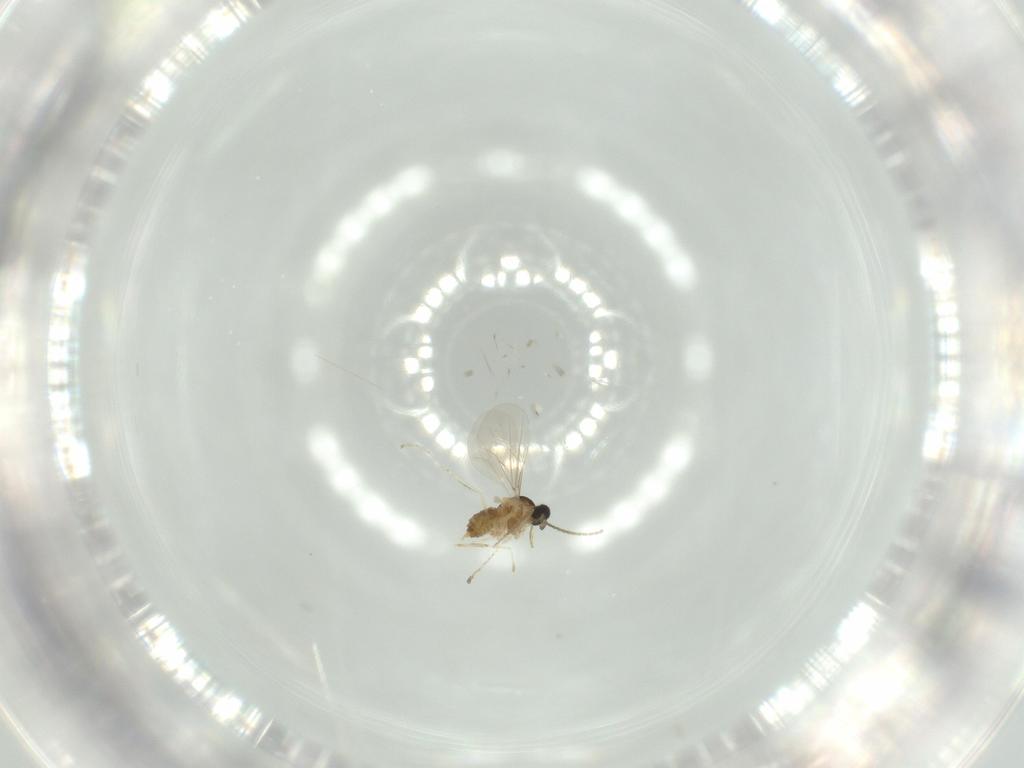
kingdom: Animalia
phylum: Arthropoda
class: Insecta
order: Diptera
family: Cecidomyiidae
